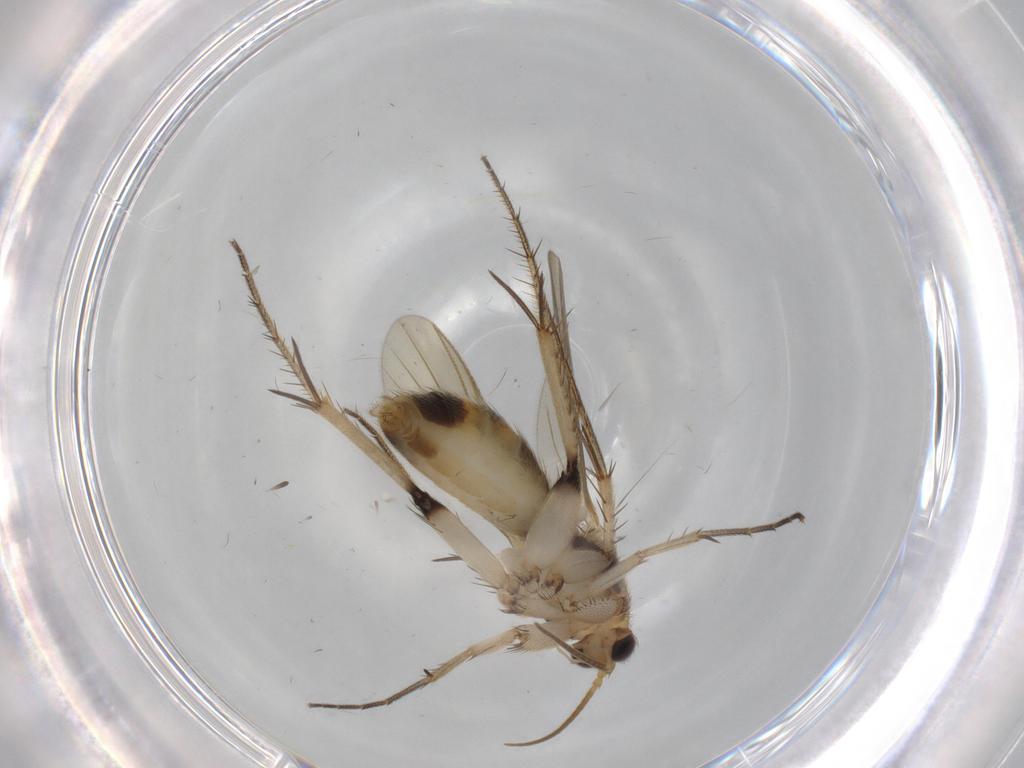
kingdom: Animalia
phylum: Arthropoda
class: Insecta
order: Diptera
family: Mycetophilidae
